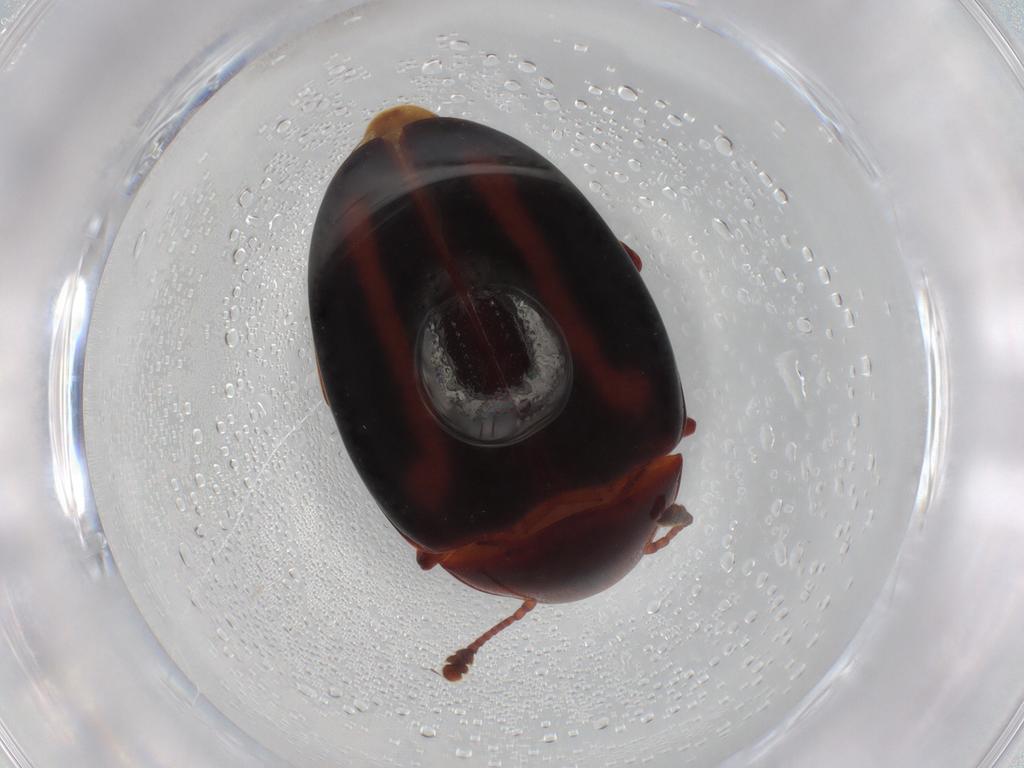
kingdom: Animalia
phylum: Arthropoda
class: Insecta
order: Coleoptera
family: Zopheridae
